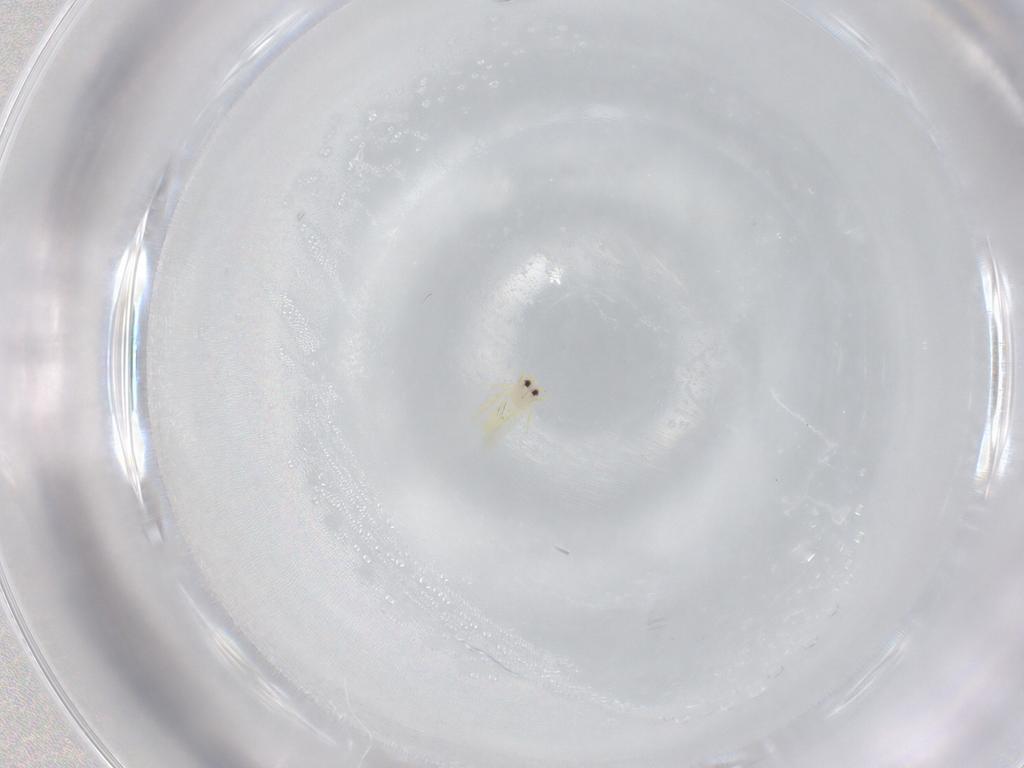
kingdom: Animalia
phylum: Arthropoda
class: Insecta
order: Hemiptera
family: Aleyrodidae
